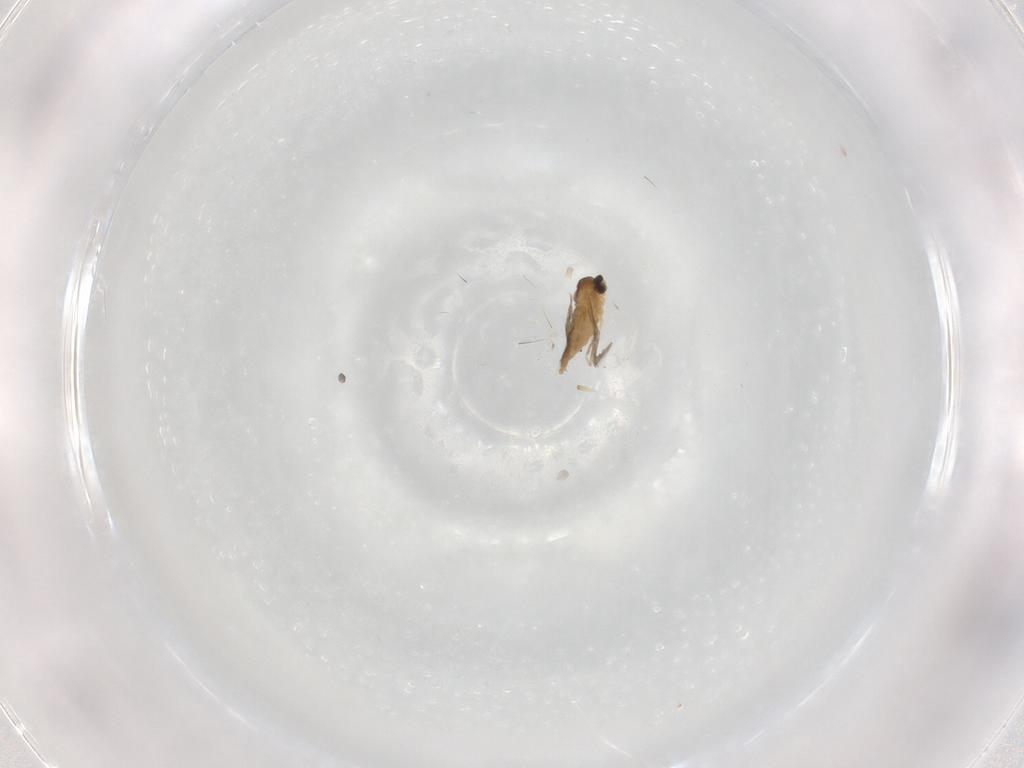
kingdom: Animalia
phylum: Arthropoda
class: Insecta
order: Diptera
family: Cecidomyiidae
